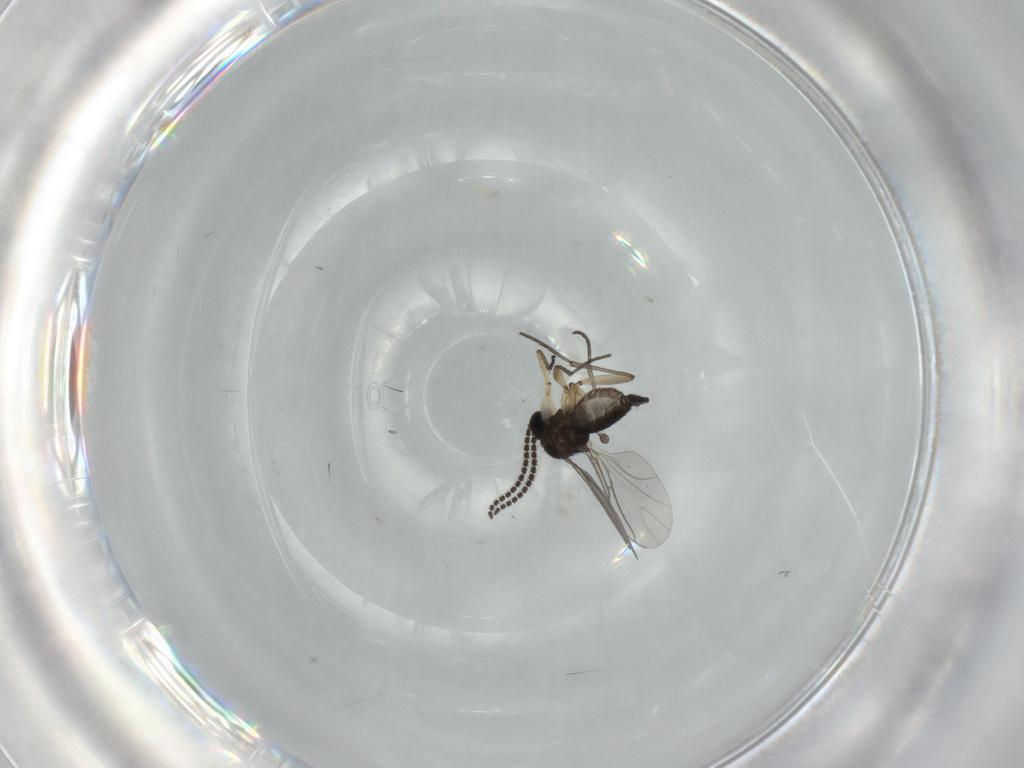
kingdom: Animalia
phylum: Arthropoda
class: Insecta
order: Diptera
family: Sciaridae
